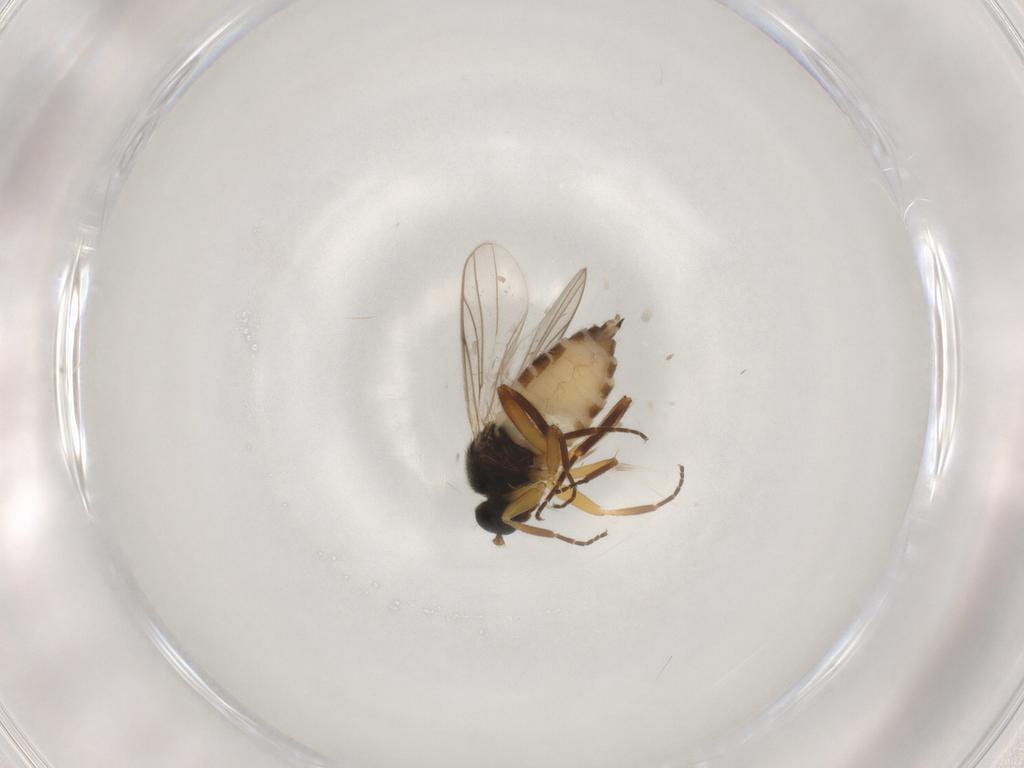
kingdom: Animalia
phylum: Arthropoda
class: Insecta
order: Diptera
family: Hybotidae
